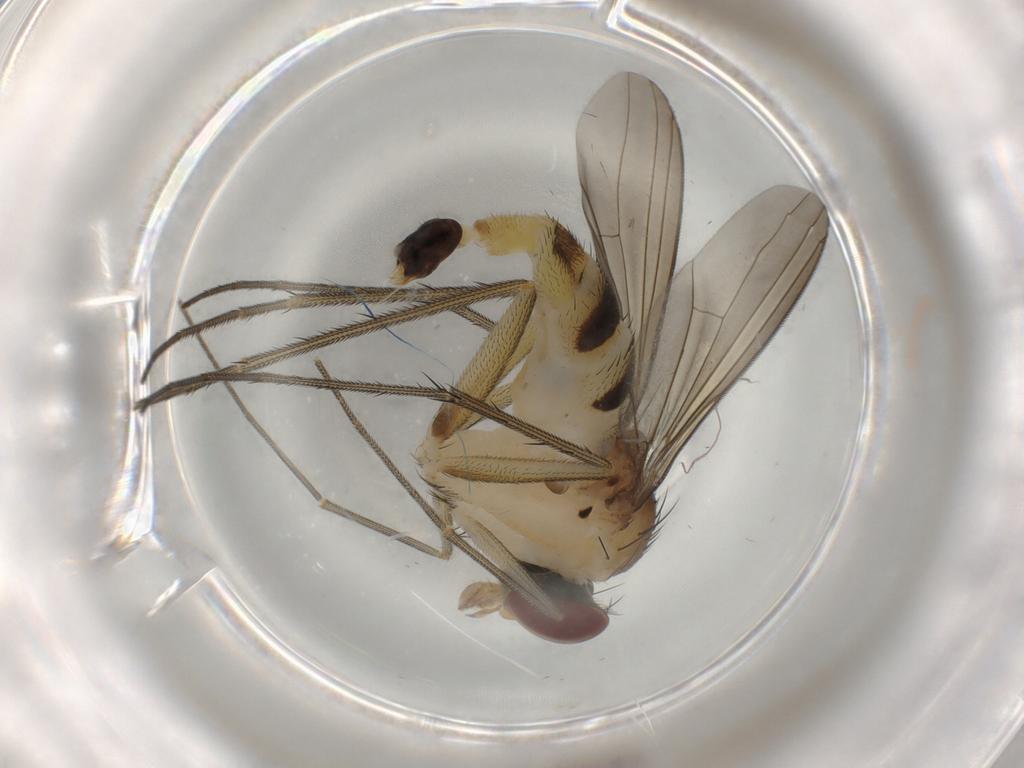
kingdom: Animalia
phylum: Arthropoda
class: Insecta
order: Diptera
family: Dolichopodidae
